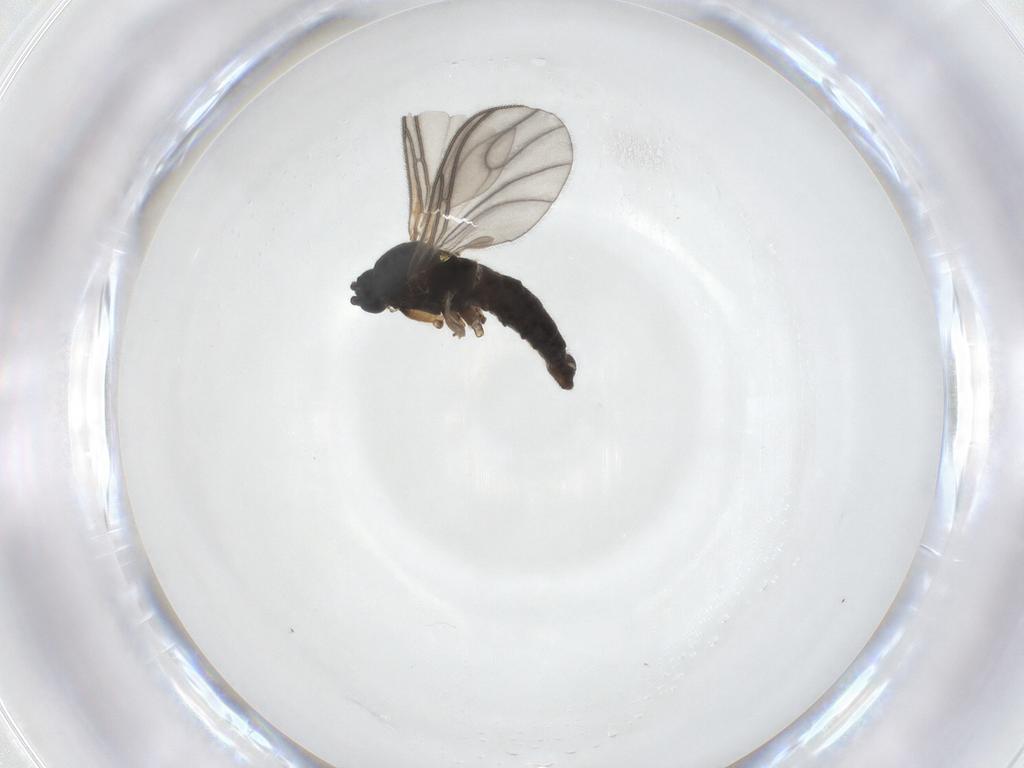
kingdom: Animalia
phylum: Arthropoda
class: Insecta
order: Diptera
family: Sciaridae
